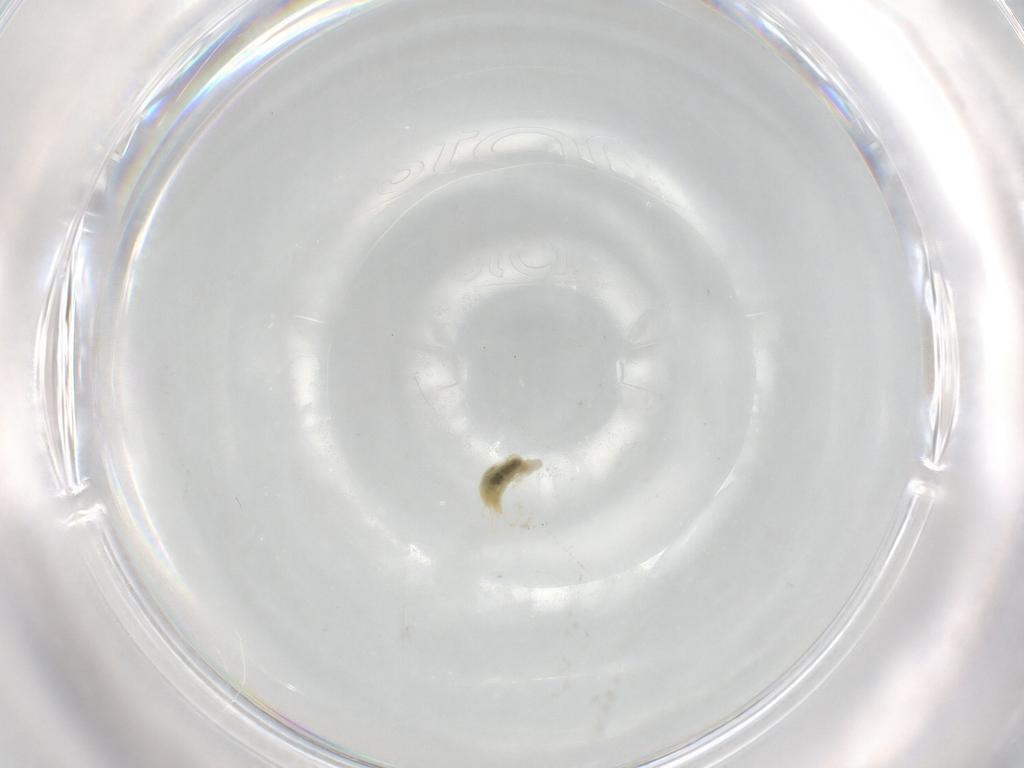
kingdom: Animalia
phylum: Arthropoda
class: Arachnida
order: Trombidiformes
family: Tetranychidae
